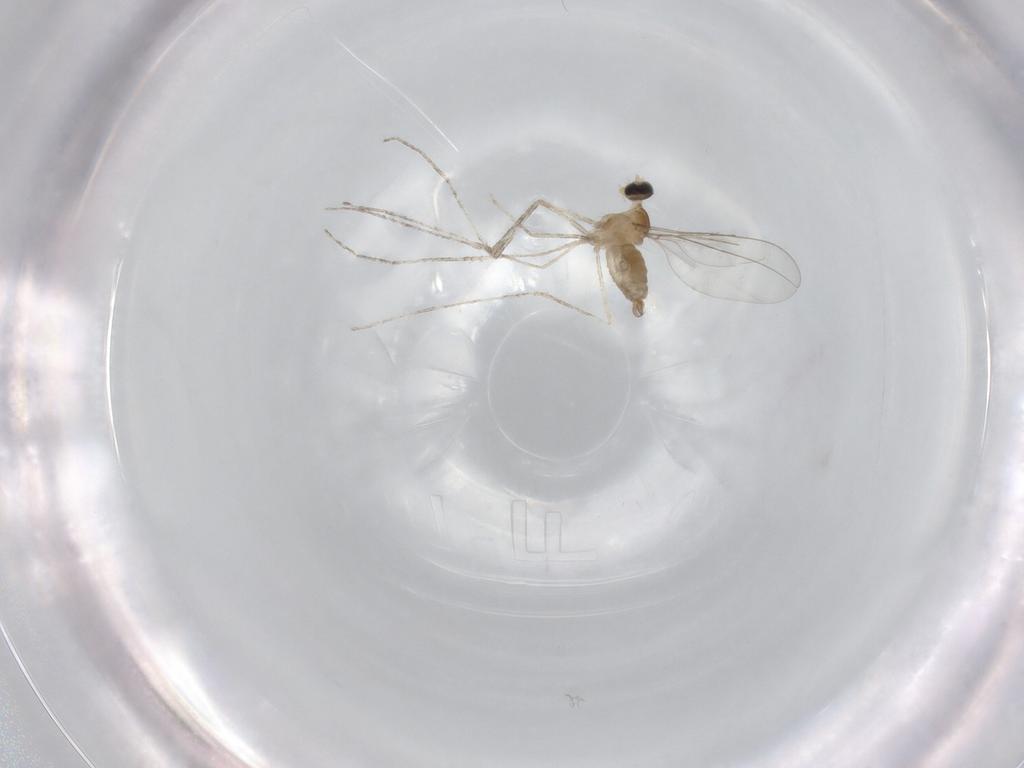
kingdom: Animalia
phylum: Arthropoda
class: Insecta
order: Diptera
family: Cecidomyiidae
